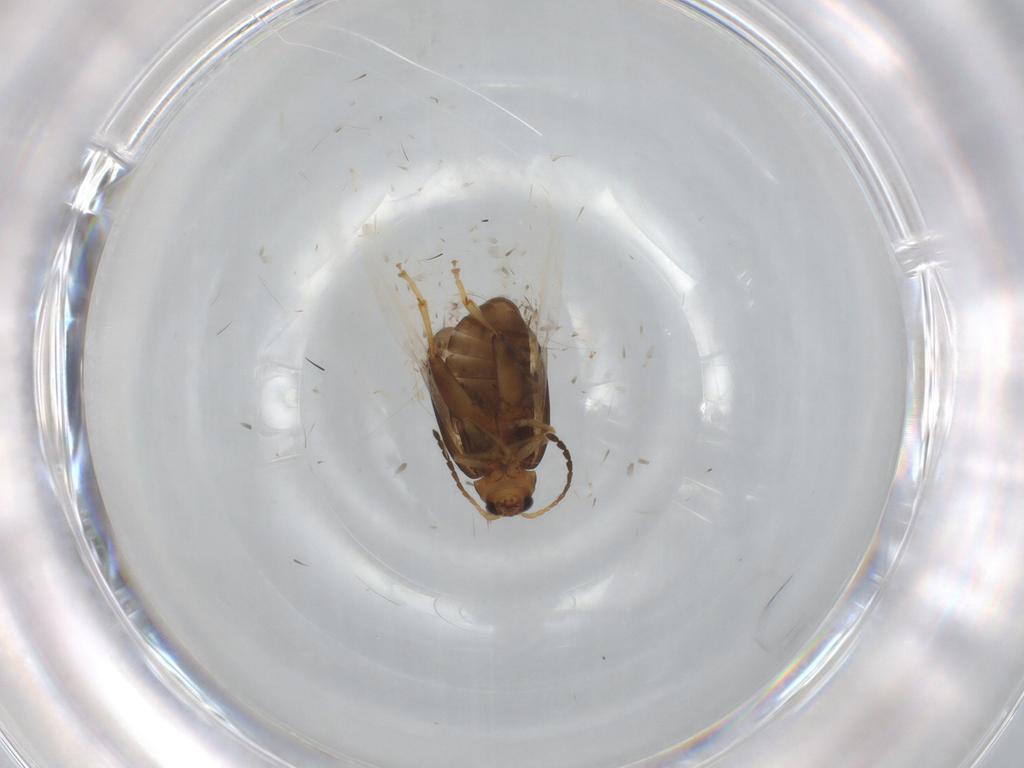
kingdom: Animalia
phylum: Arthropoda
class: Insecta
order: Coleoptera
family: Chrysomelidae
